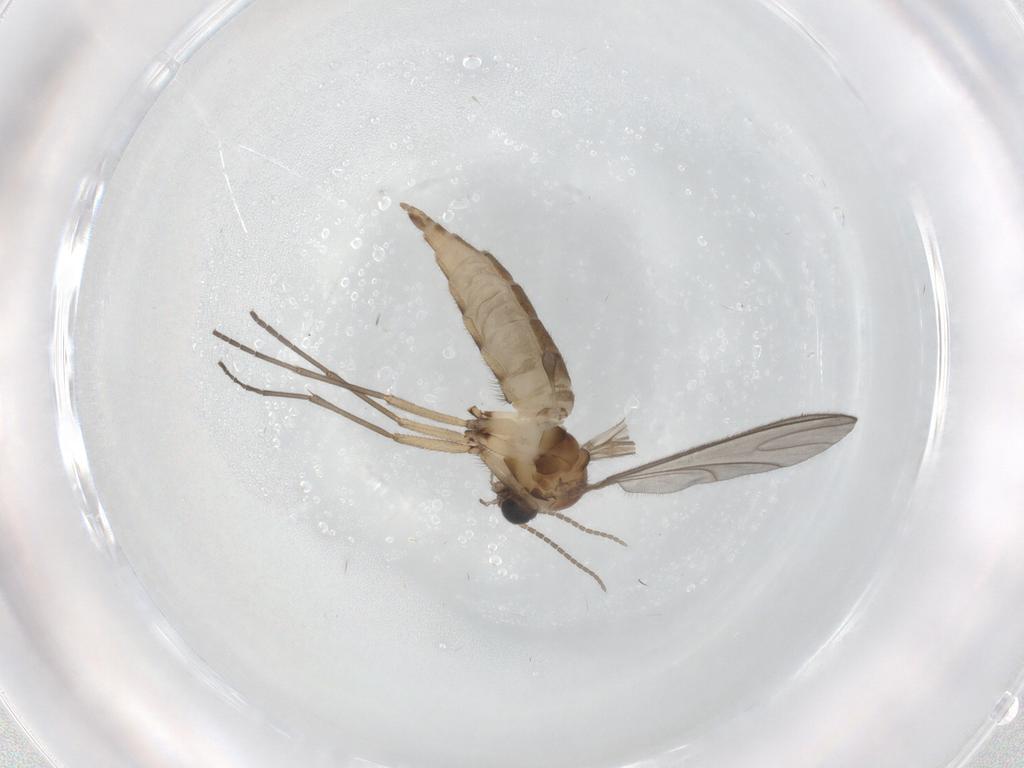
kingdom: Animalia
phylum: Arthropoda
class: Insecta
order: Diptera
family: Sciaridae
